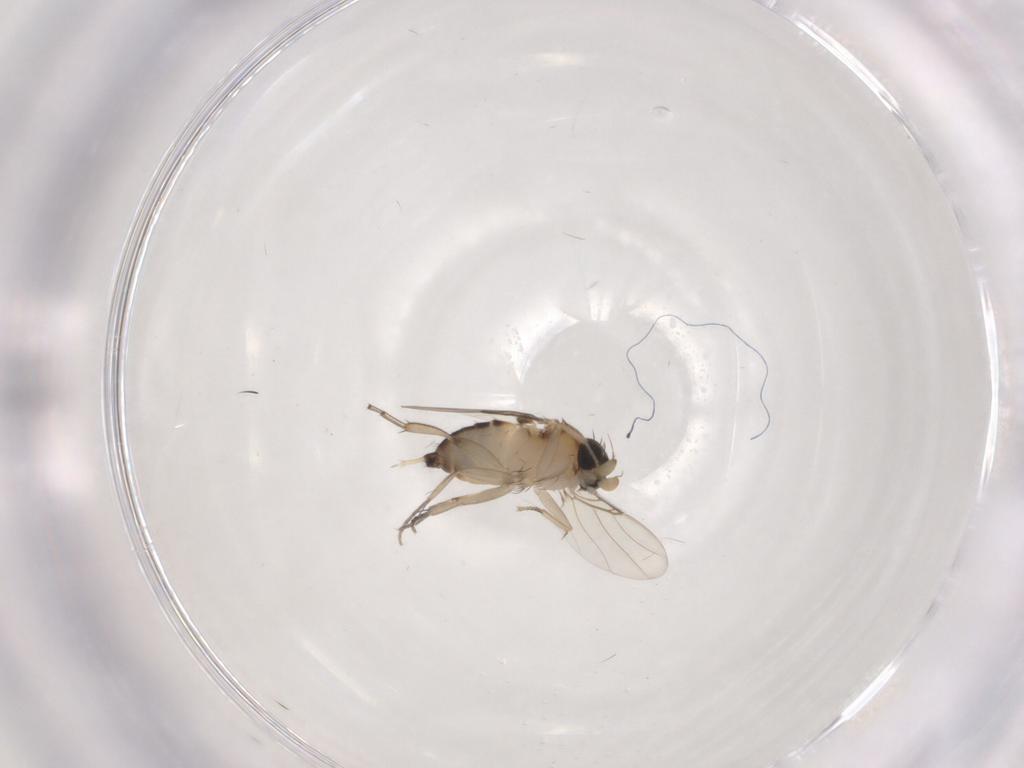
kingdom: Animalia
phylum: Arthropoda
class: Insecta
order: Diptera
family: Phoridae
